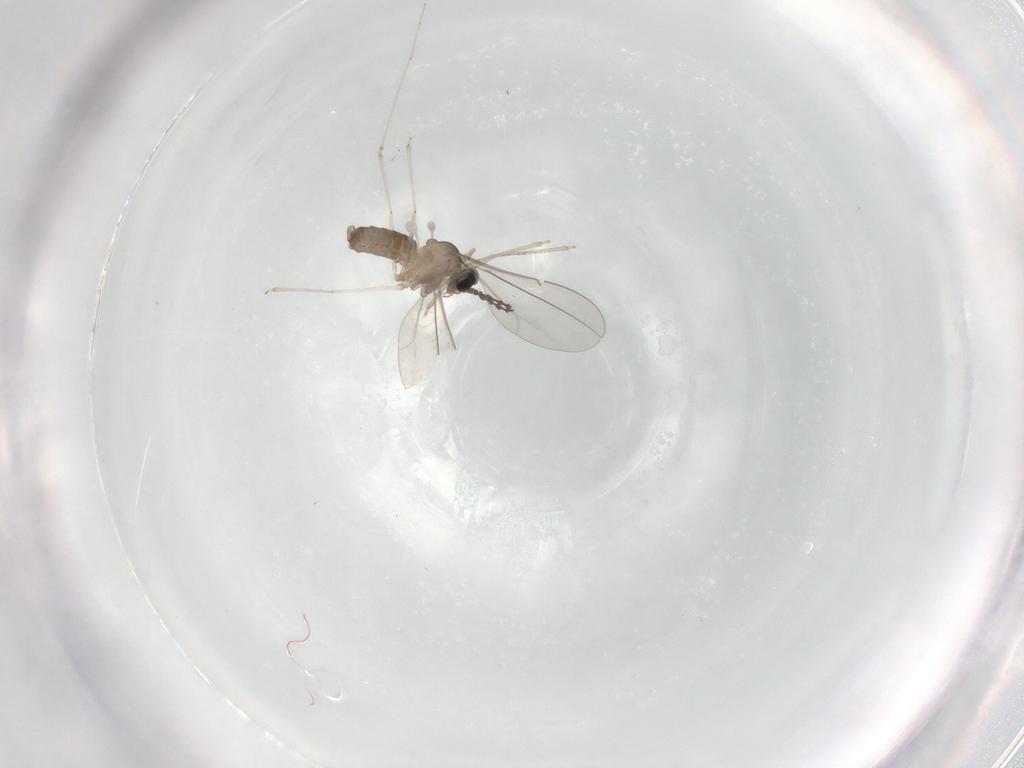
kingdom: Animalia
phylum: Arthropoda
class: Insecta
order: Diptera
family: Cecidomyiidae
